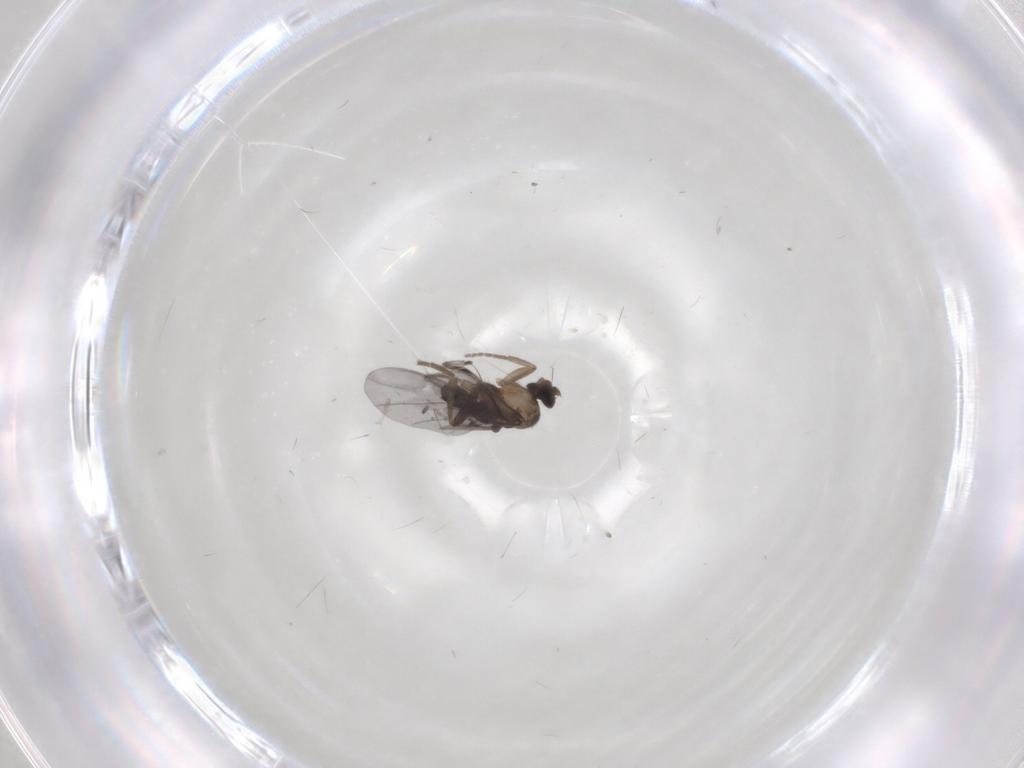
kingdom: Animalia
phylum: Arthropoda
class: Insecta
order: Diptera
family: Phoridae
